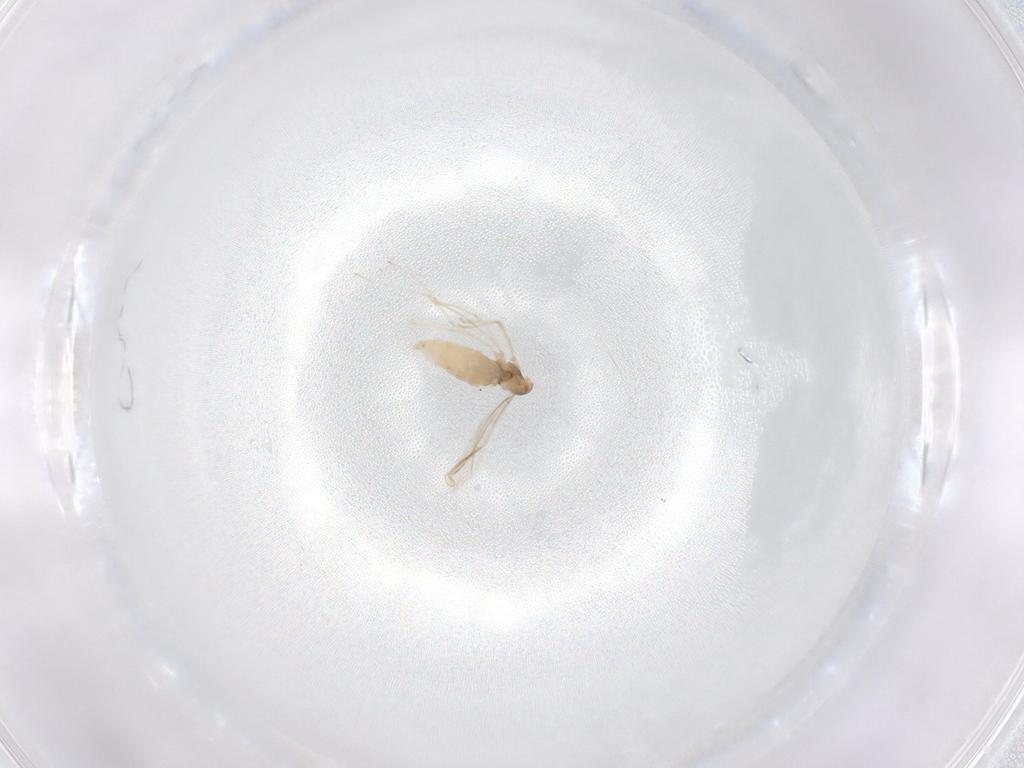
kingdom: Animalia
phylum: Arthropoda
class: Insecta
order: Diptera
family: Cecidomyiidae
